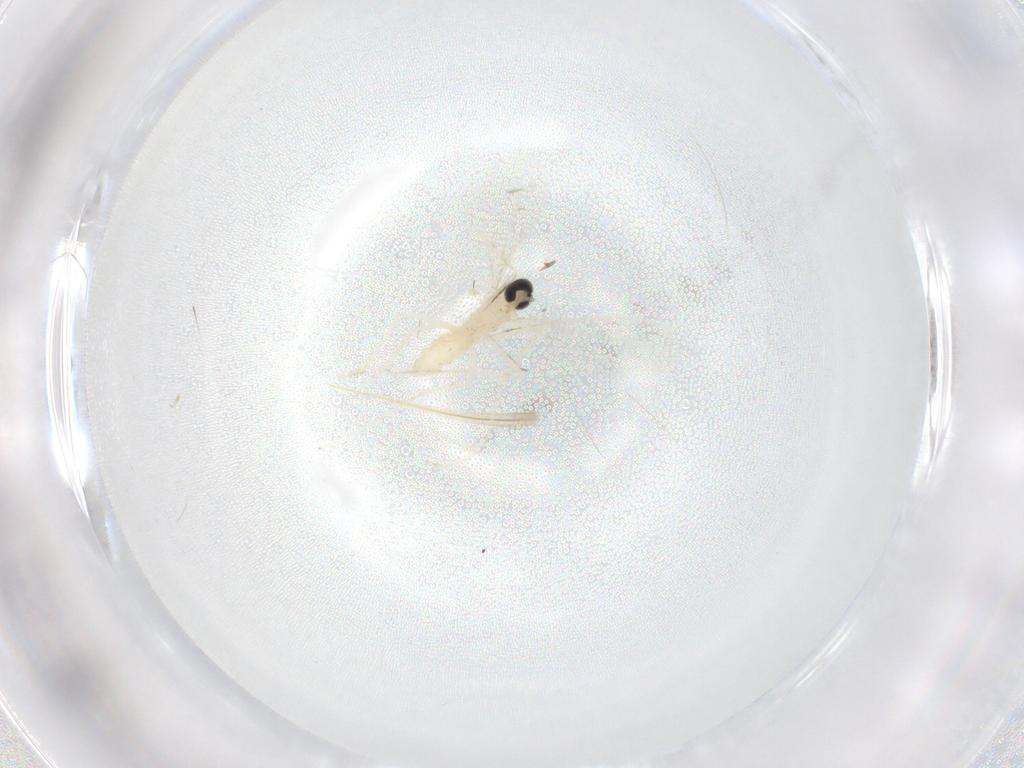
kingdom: Animalia
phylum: Arthropoda
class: Insecta
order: Diptera
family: Cecidomyiidae
